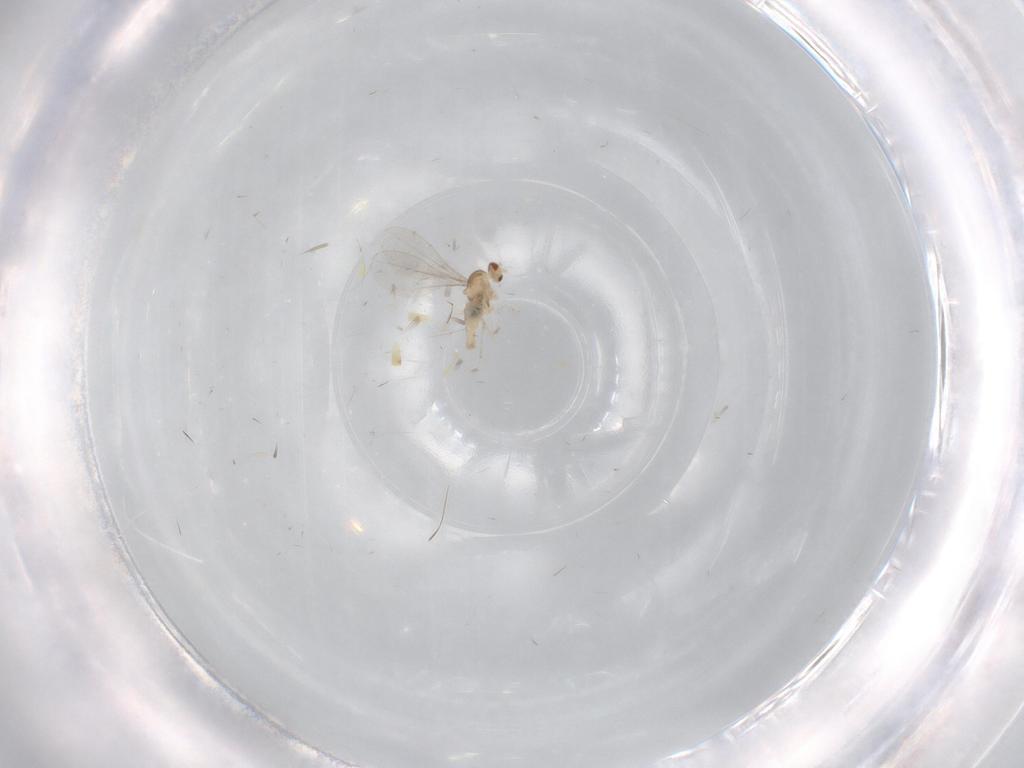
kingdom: Animalia
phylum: Arthropoda
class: Insecta
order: Diptera
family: Cecidomyiidae
